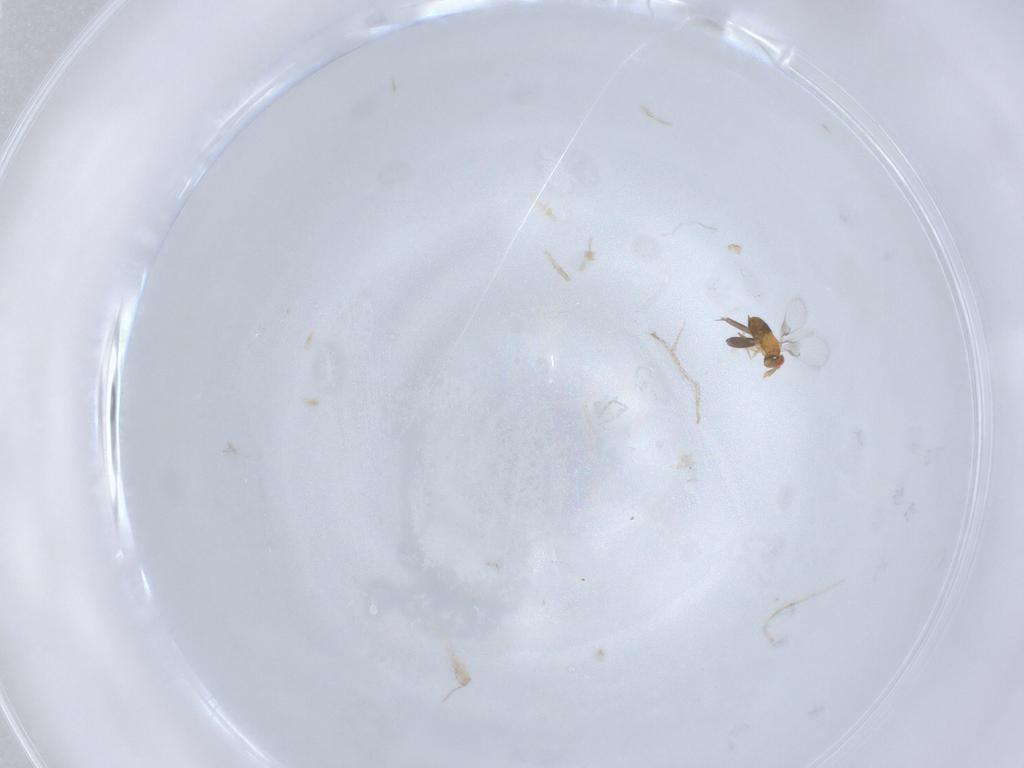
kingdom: Animalia
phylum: Arthropoda
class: Insecta
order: Hymenoptera
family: Trichogrammatidae
